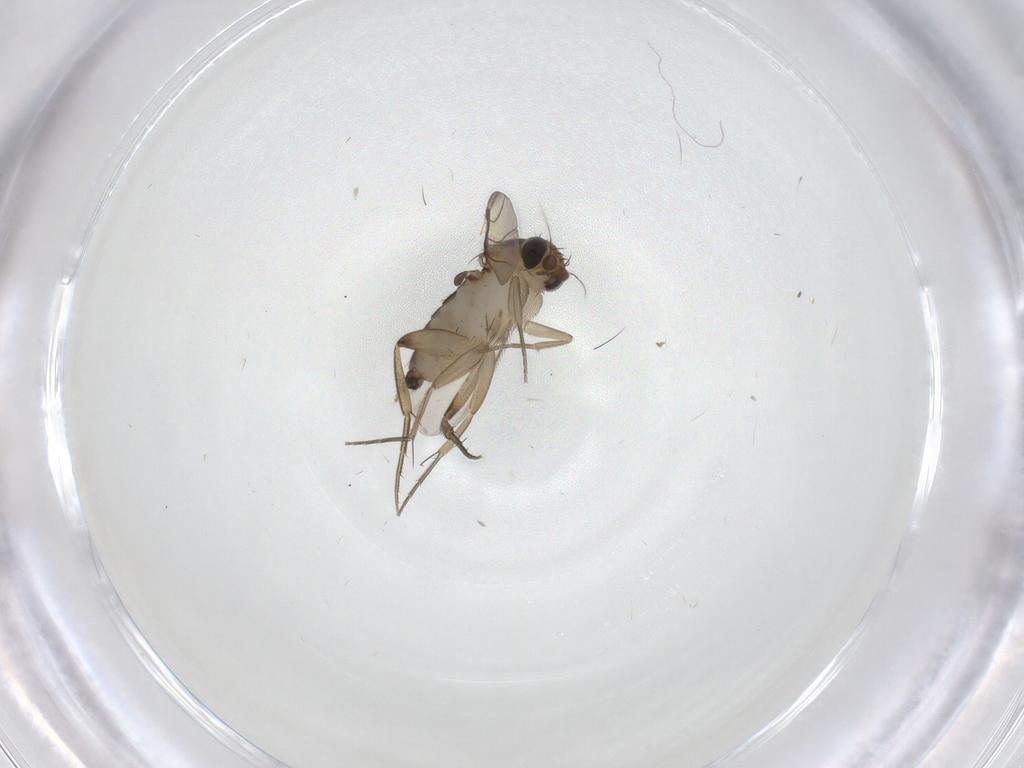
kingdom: Animalia
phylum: Arthropoda
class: Insecta
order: Diptera
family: Phoridae
